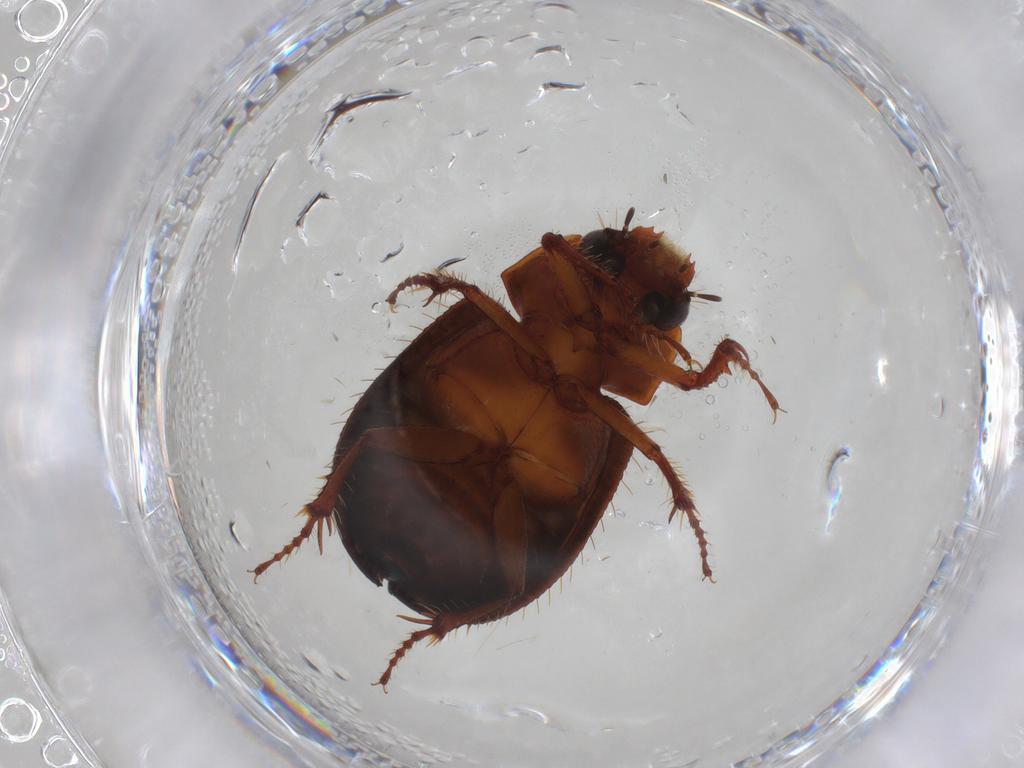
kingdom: Animalia
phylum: Arthropoda
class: Insecta
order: Coleoptera
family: Hybosoridae
